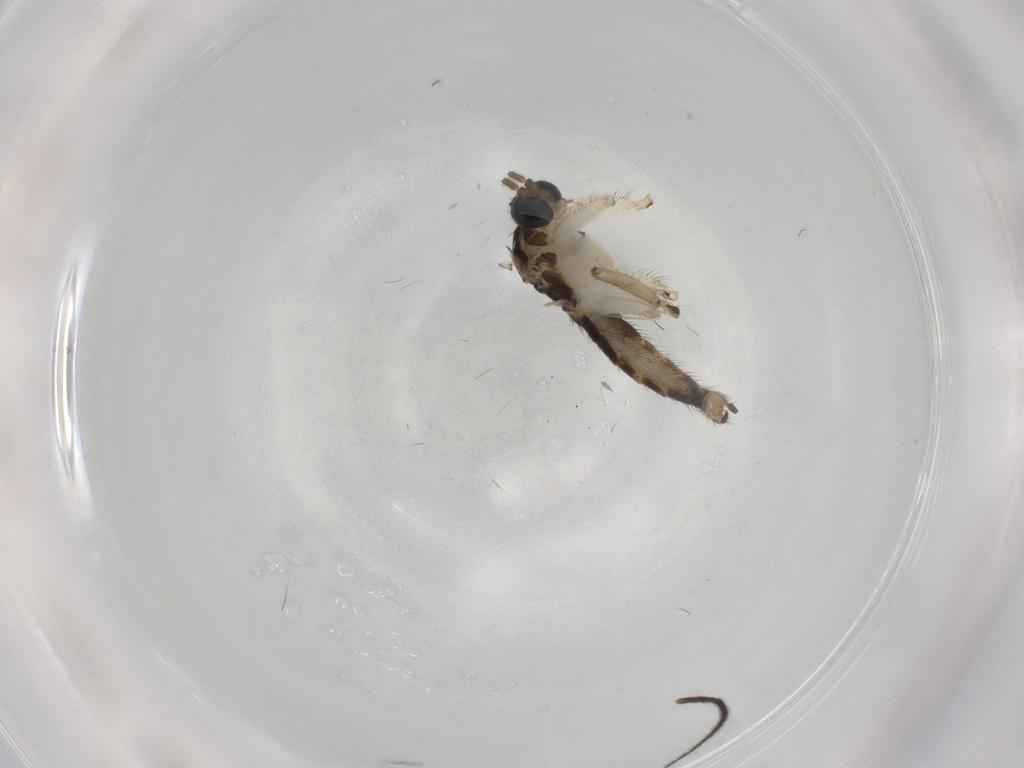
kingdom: Animalia
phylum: Arthropoda
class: Insecta
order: Diptera
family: Sciaridae
